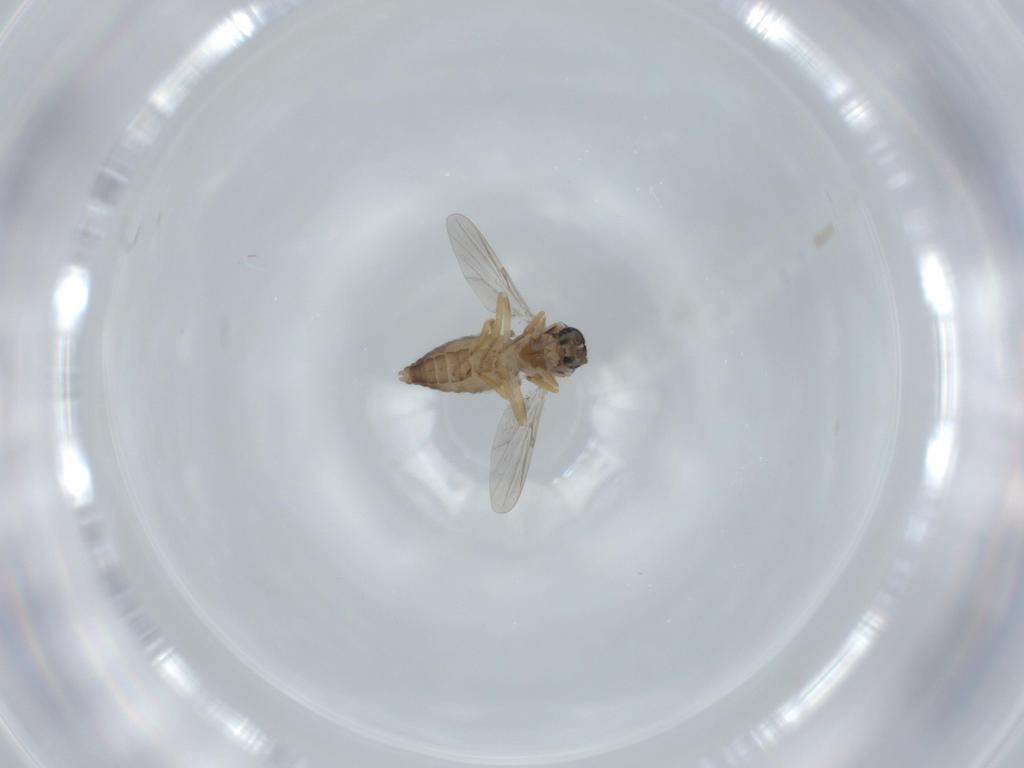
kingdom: Animalia
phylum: Arthropoda
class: Insecta
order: Diptera
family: Ceratopogonidae
